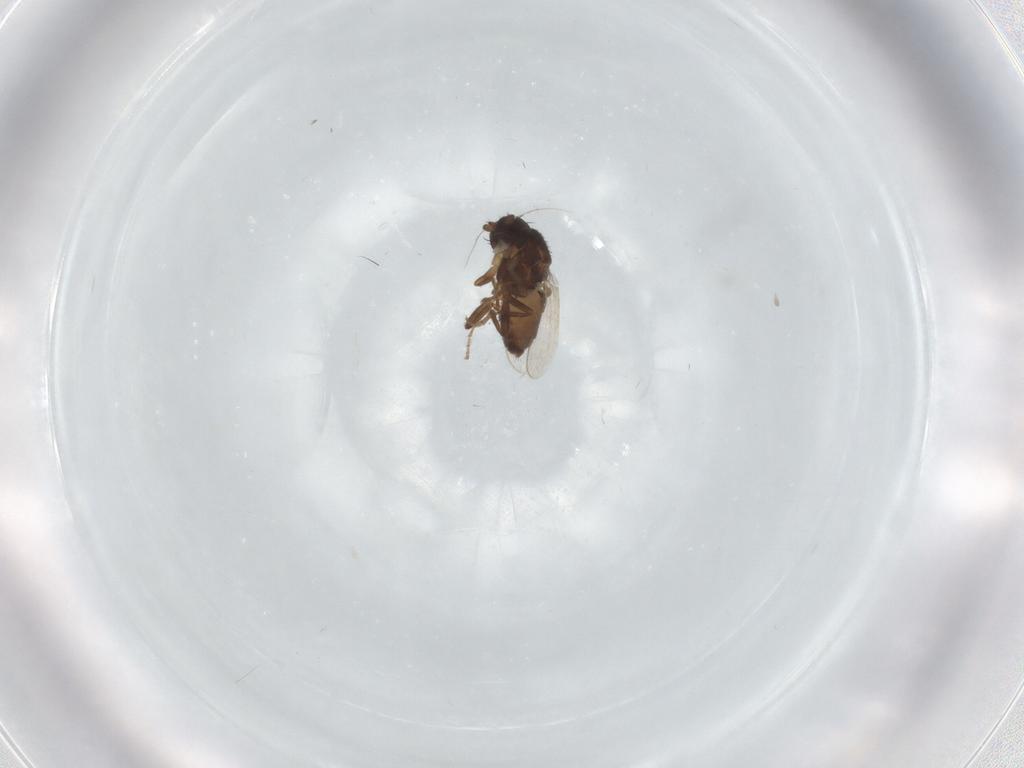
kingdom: Animalia
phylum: Arthropoda
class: Insecta
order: Diptera
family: Sphaeroceridae
